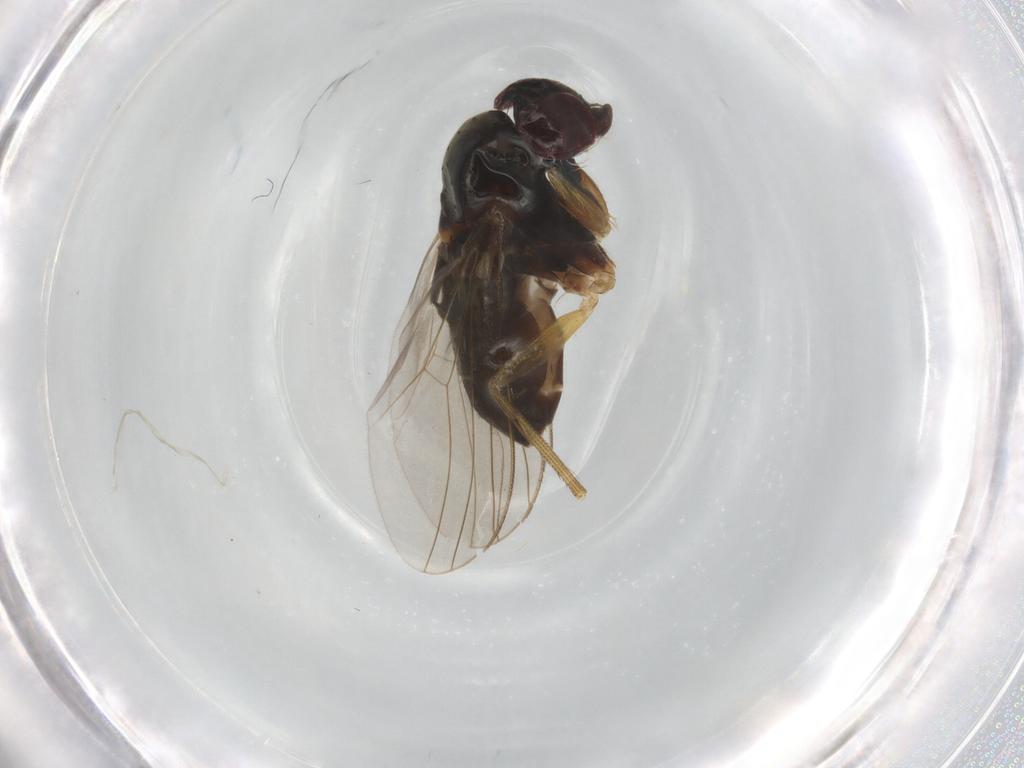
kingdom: Animalia
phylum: Arthropoda
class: Insecta
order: Diptera
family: Dolichopodidae
